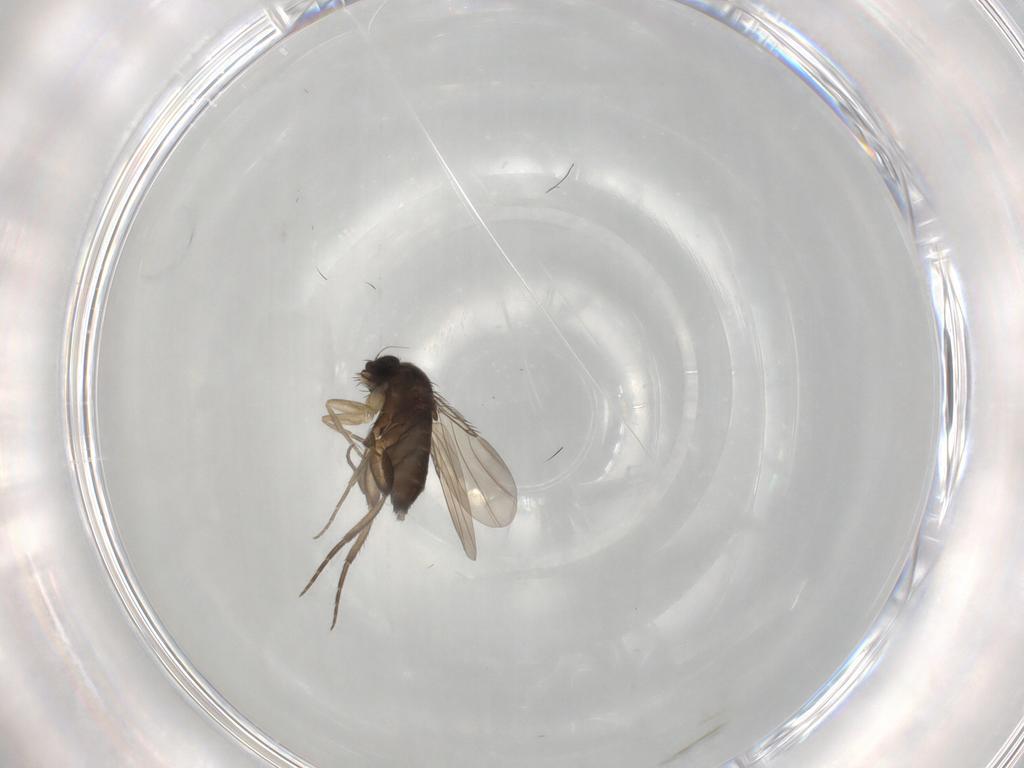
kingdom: Animalia
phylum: Arthropoda
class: Insecta
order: Diptera
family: Phoridae
